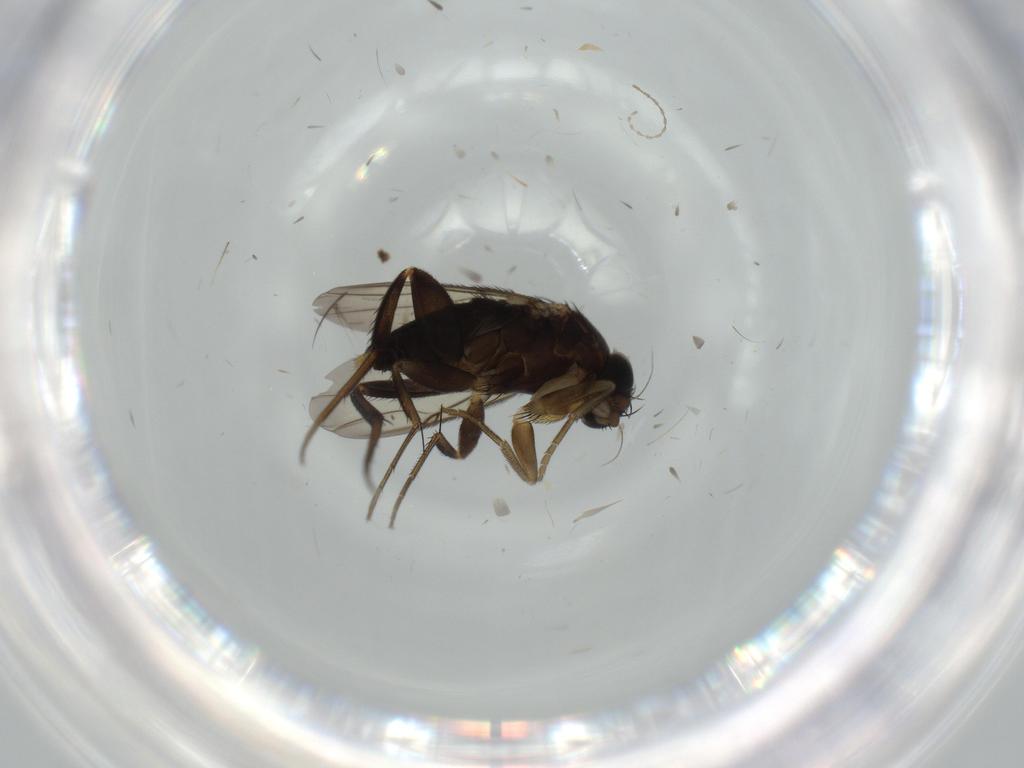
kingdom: Animalia
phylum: Arthropoda
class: Insecta
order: Diptera
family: Phoridae
